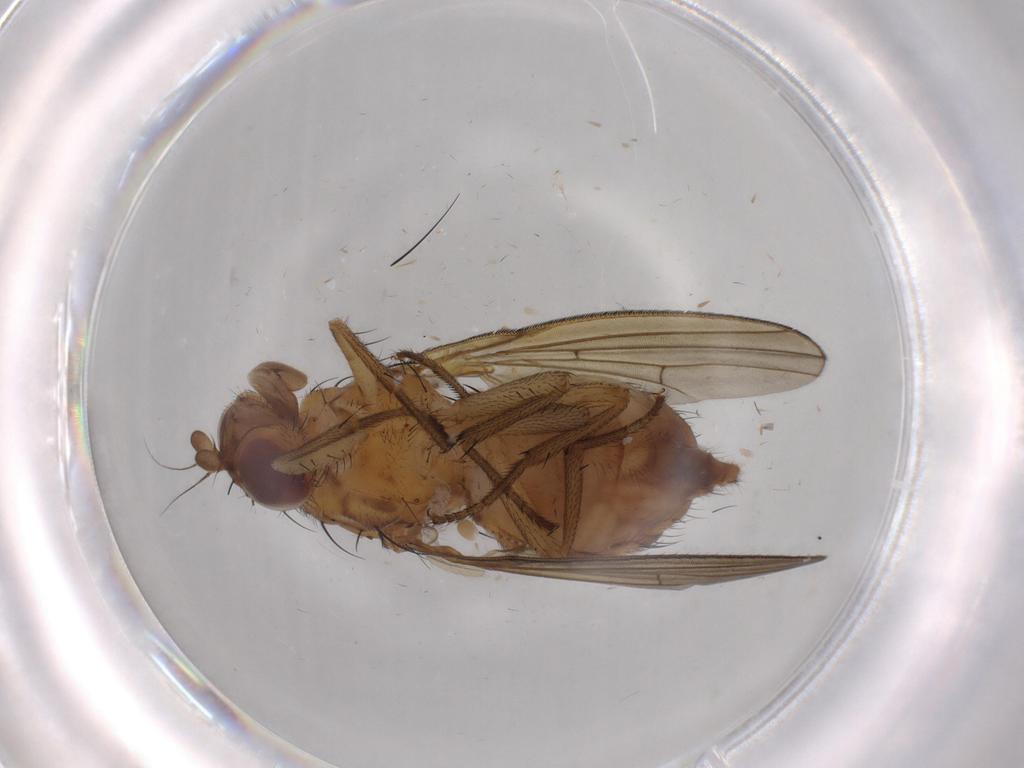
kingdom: Animalia
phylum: Arthropoda
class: Insecta
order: Diptera
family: Cecidomyiidae
